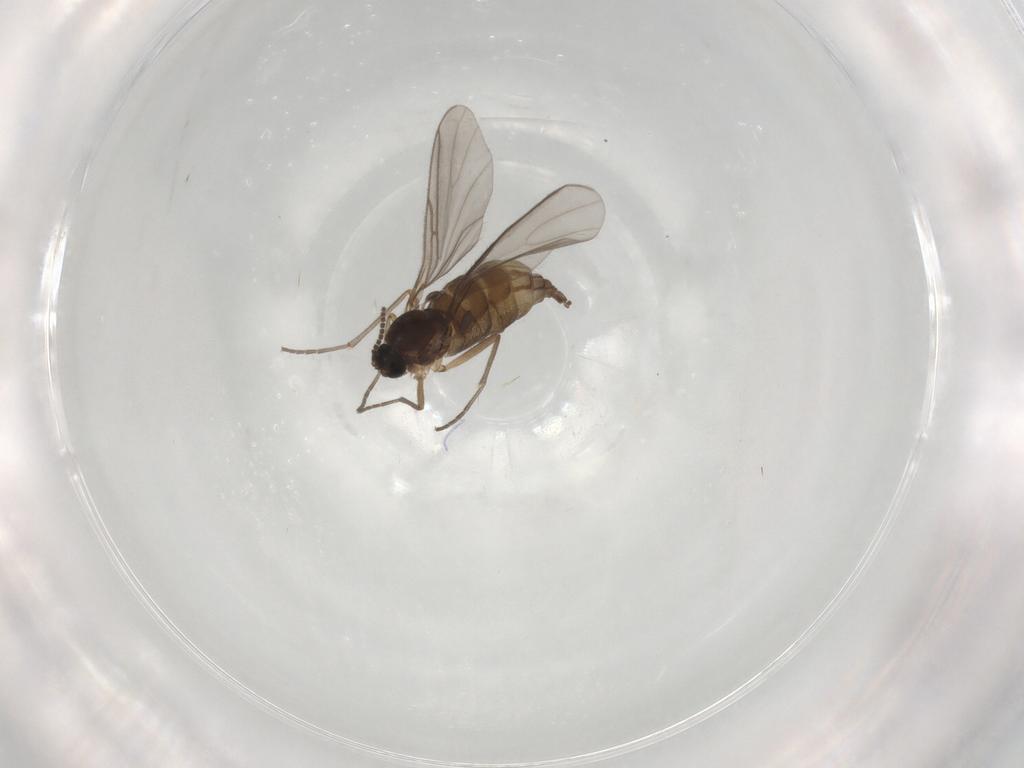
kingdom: Animalia
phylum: Arthropoda
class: Insecta
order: Diptera
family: Sciaridae
